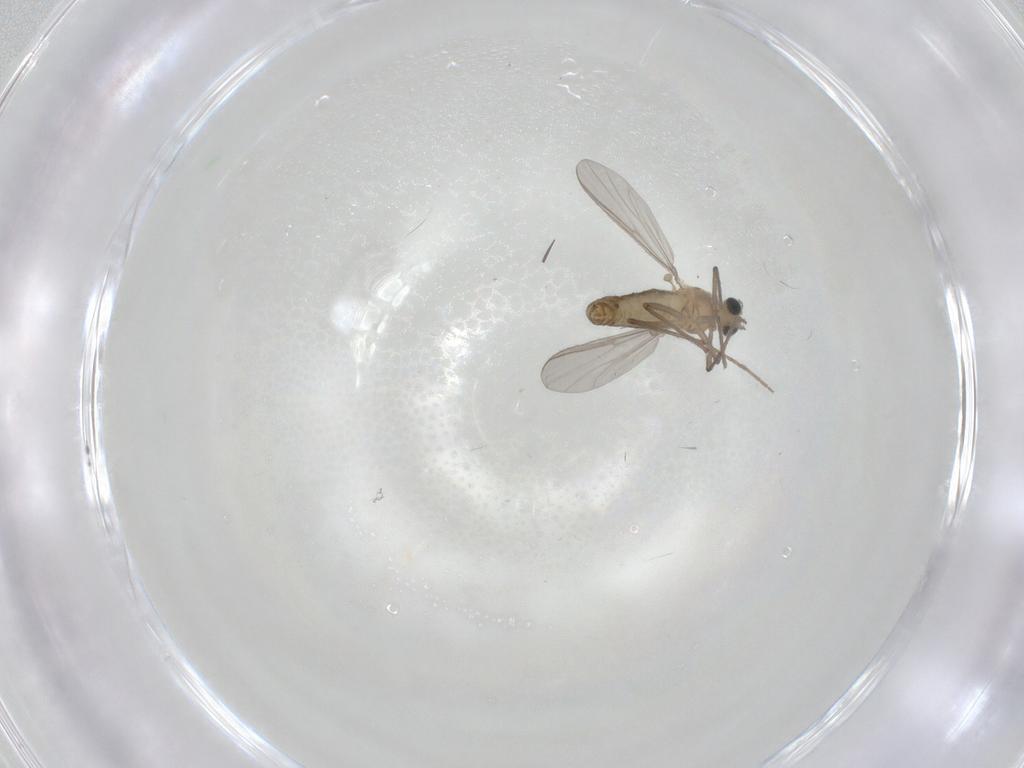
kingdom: Animalia
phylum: Arthropoda
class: Insecta
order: Diptera
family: Chironomidae
